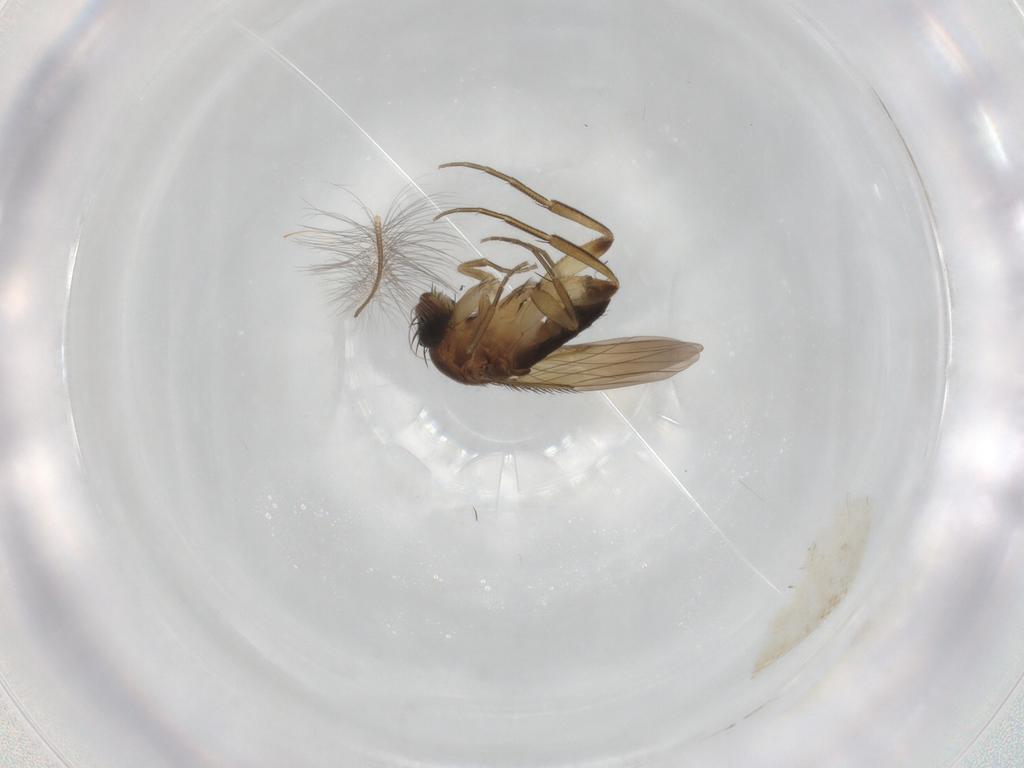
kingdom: Animalia
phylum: Arthropoda
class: Insecta
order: Diptera
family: Phoridae
